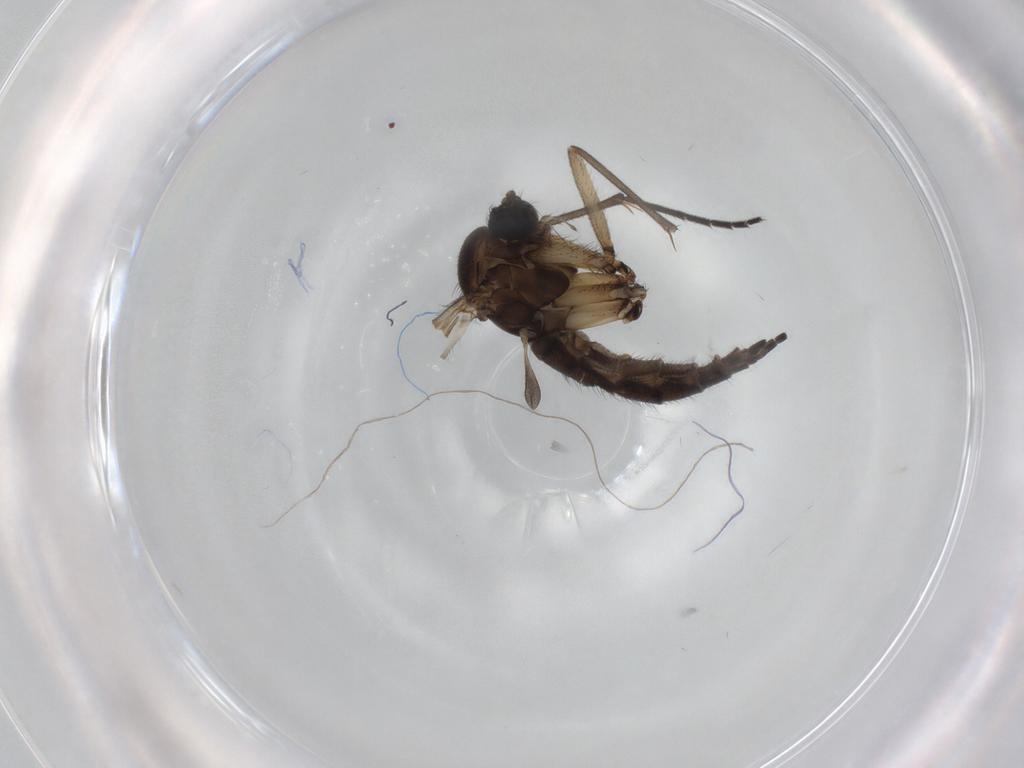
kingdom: Animalia
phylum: Arthropoda
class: Insecta
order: Diptera
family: Sciaridae
